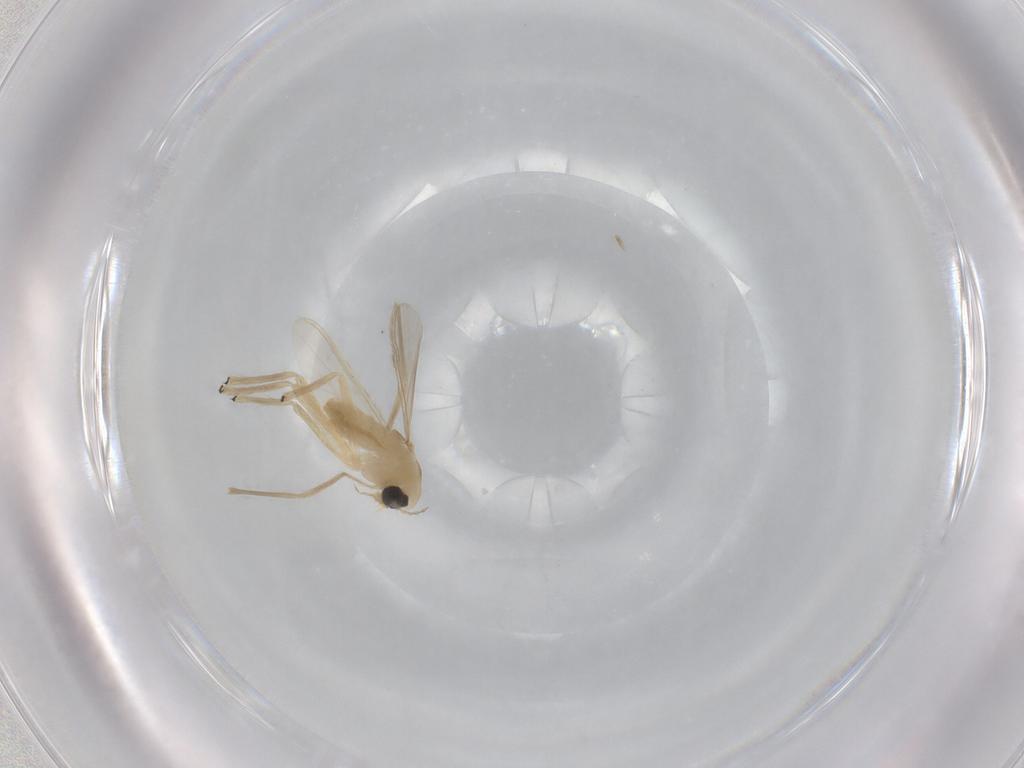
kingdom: Animalia
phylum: Arthropoda
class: Insecta
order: Diptera
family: Chironomidae
